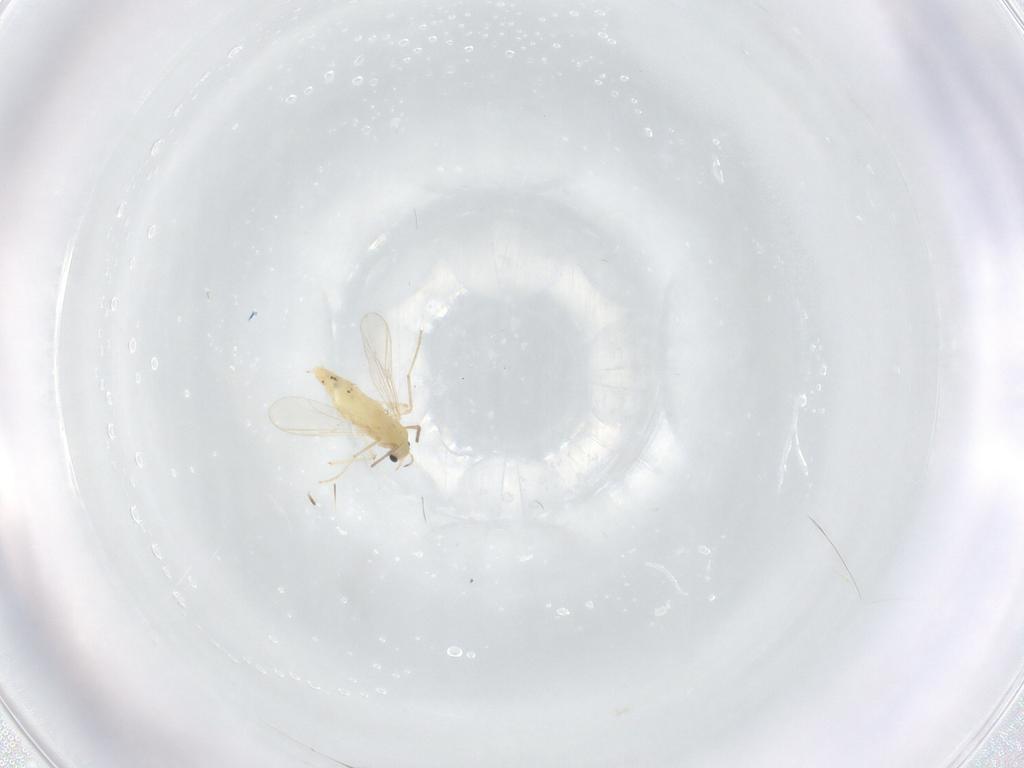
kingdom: Animalia
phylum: Arthropoda
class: Insecta
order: Diptera
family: Chironomidae
